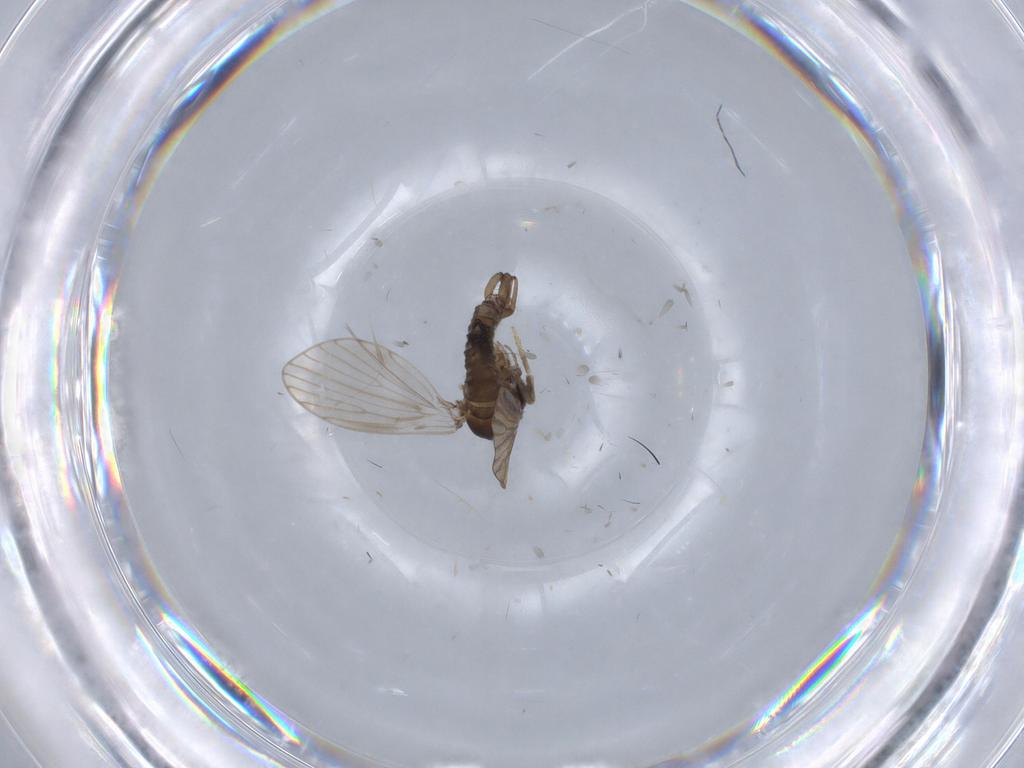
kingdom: Animalia
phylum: Arthropoda
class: Insecta
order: Diptera
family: Psychodidae
